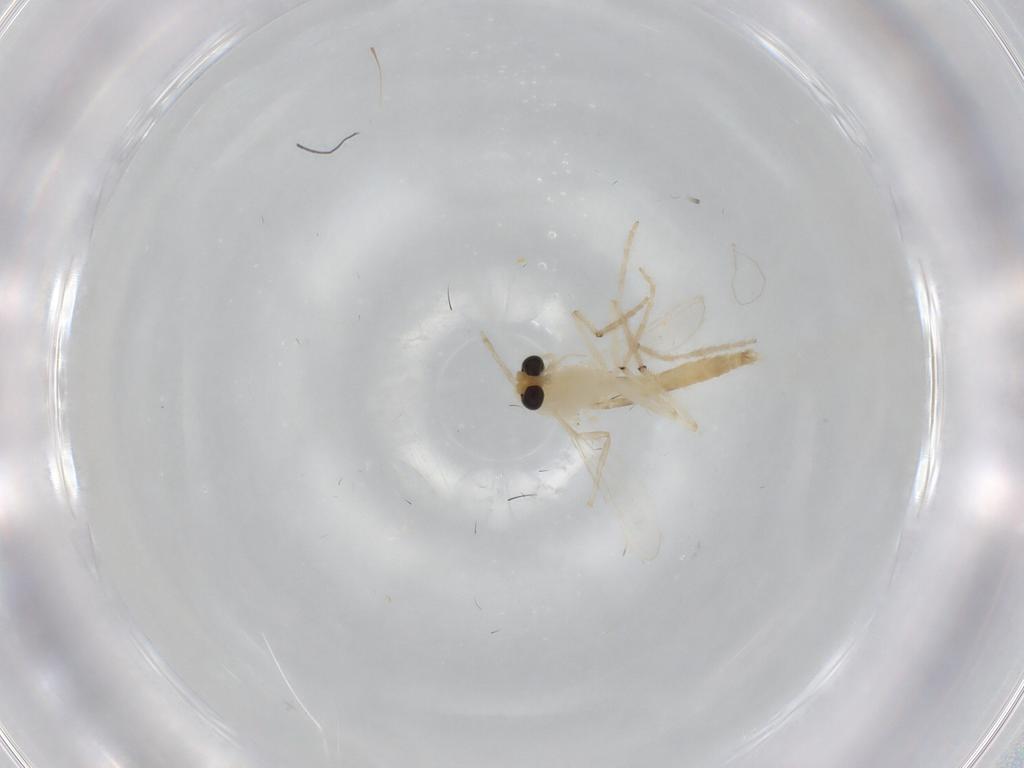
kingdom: Animalia
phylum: Arthropoda
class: Insecta
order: Diptera
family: Chironomidae
